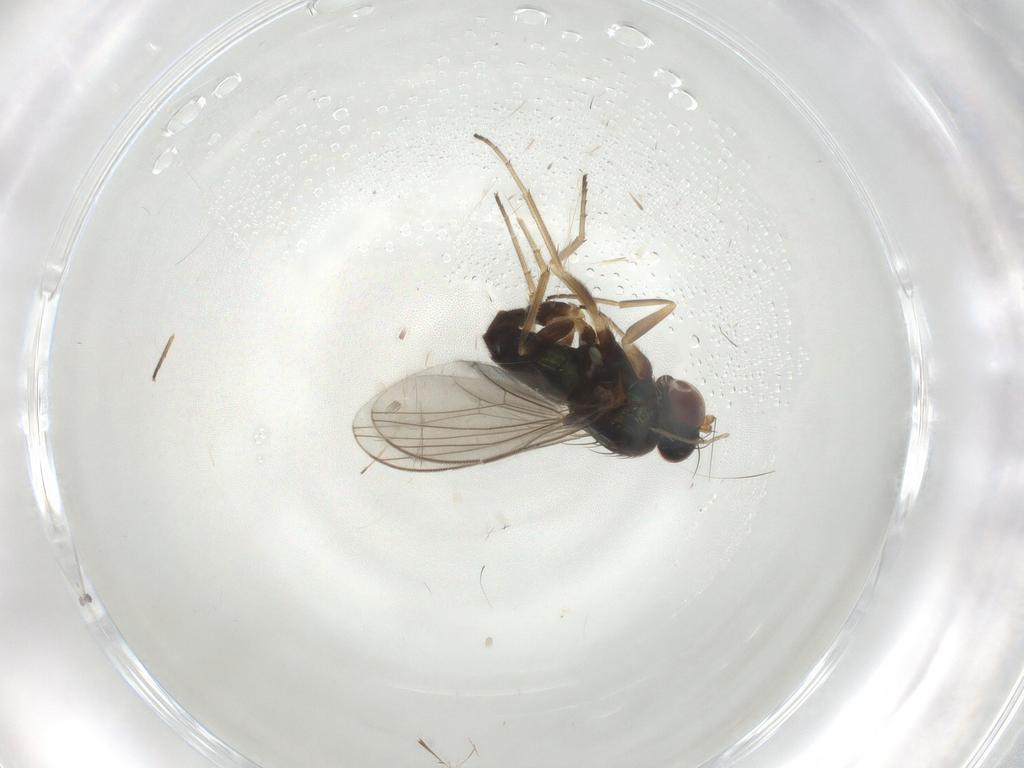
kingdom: Animalia
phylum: Arthropoda
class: Insecta
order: Diptera
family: Dolichopodidae
